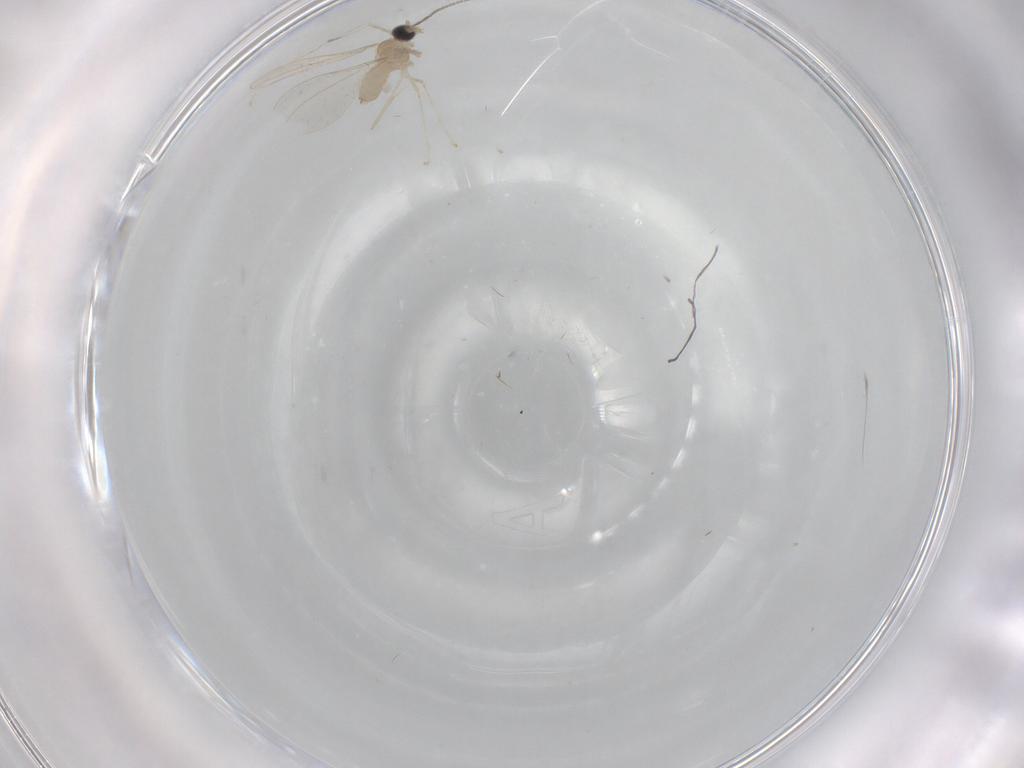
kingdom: Animalia
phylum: Arthropoda
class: Insecta
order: Diptera
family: Cecidomyiidae
